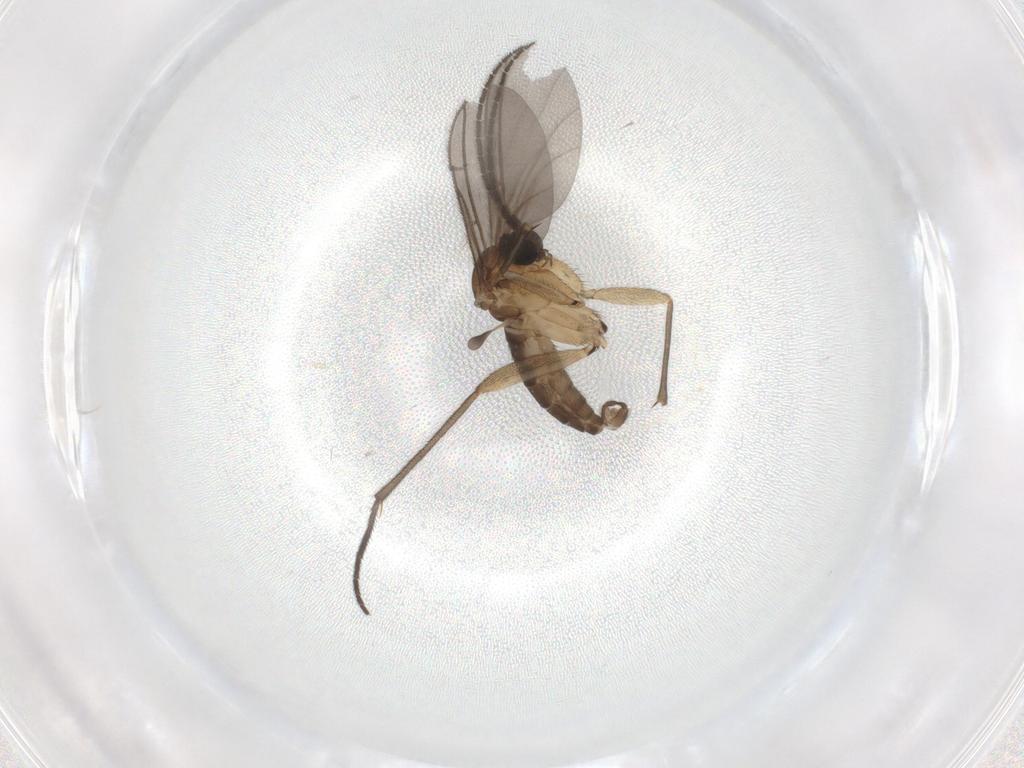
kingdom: Animalia
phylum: Arthropoda
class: Insecta
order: Diptera
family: Sciaridae
